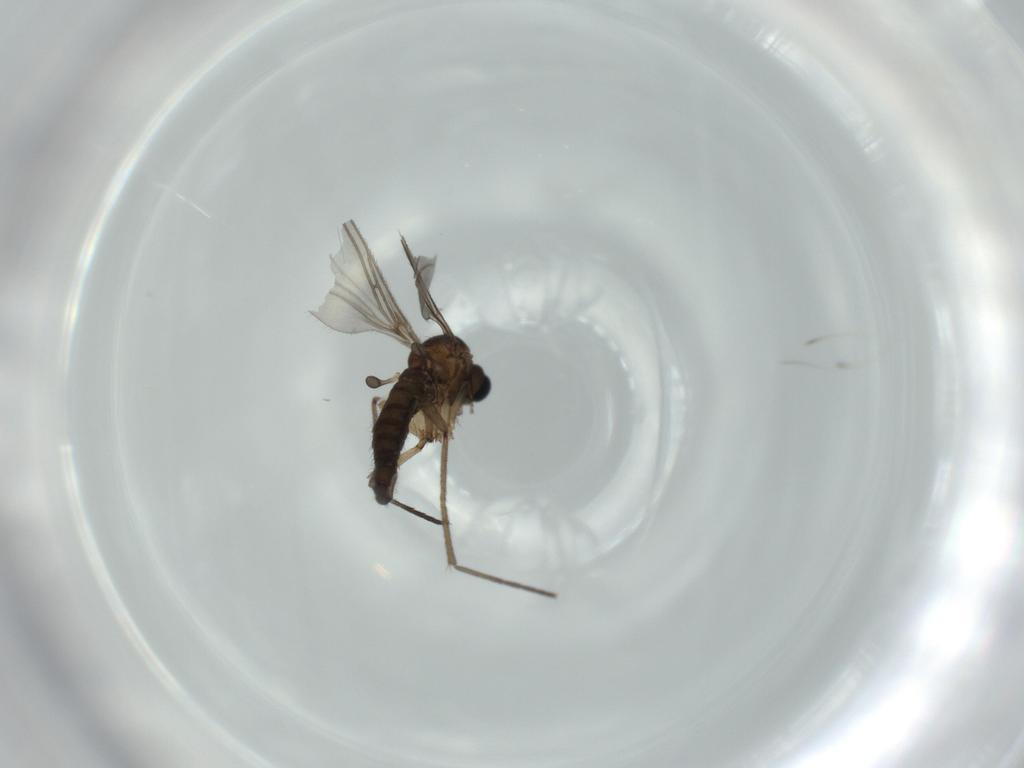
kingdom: Animalia
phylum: Arthropoda
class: Insecta
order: Diptera
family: Sciaridae
